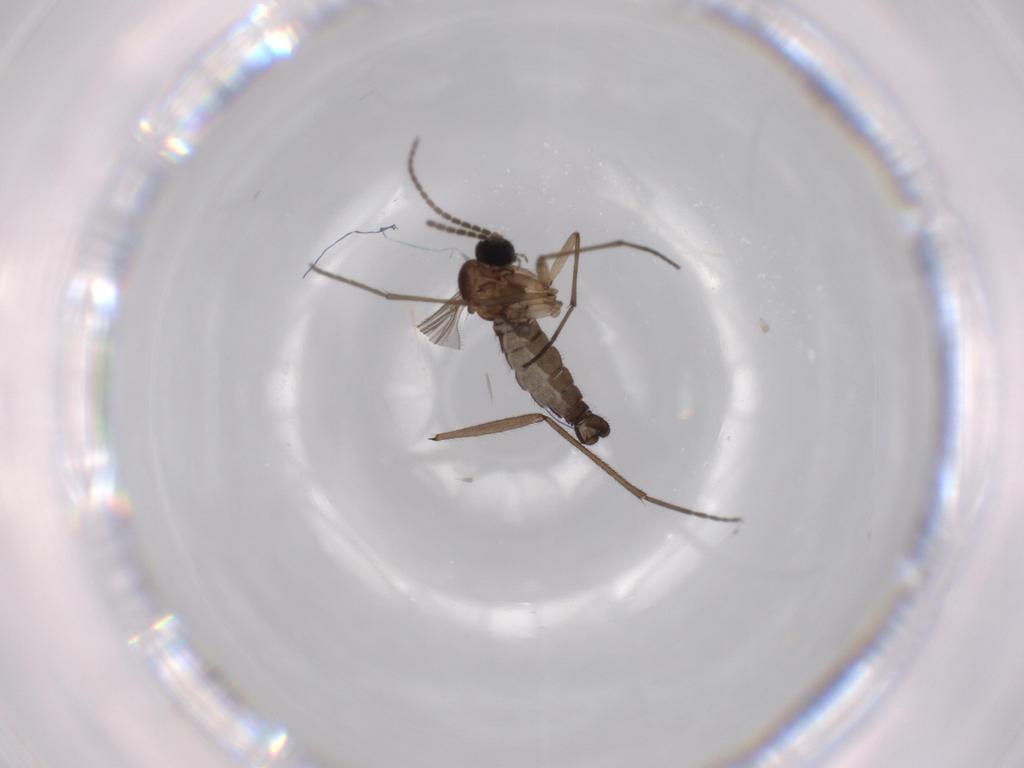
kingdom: Animalia
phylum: Arthropoda
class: Insecta
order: Diptera
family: Sciaridae
